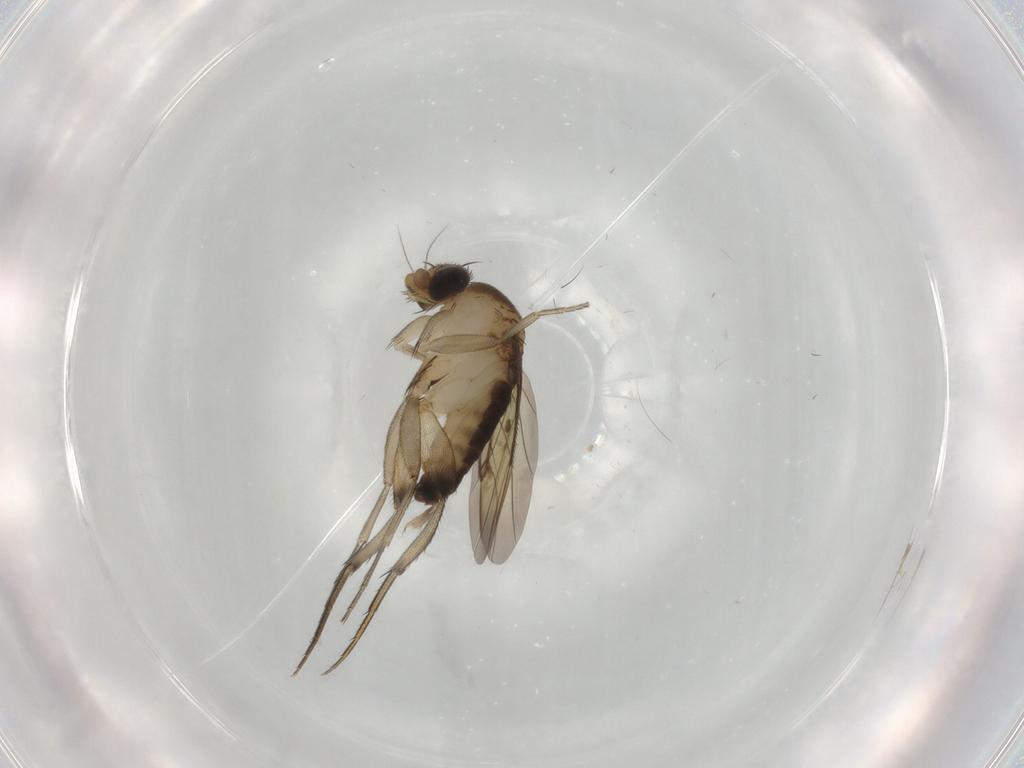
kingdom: Animalia
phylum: Arthropoda
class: Insecta
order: Diptera
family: Phoridae
